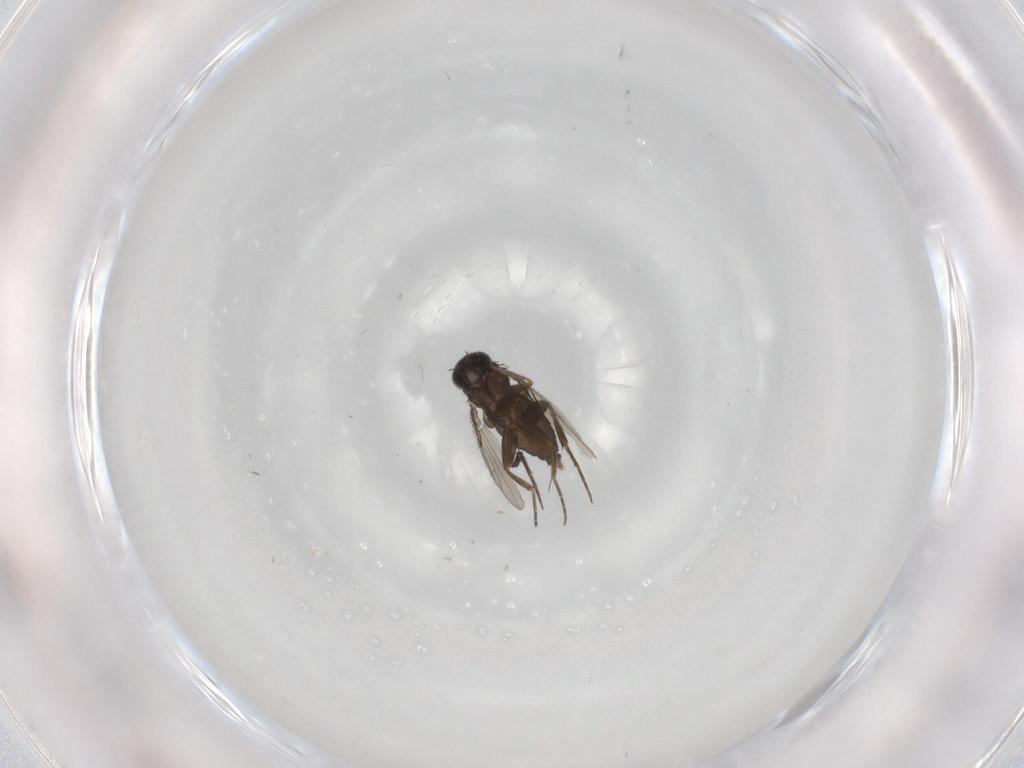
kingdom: Animalia
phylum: Arthropoda
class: Insecta
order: Diptera
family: Phoridae
